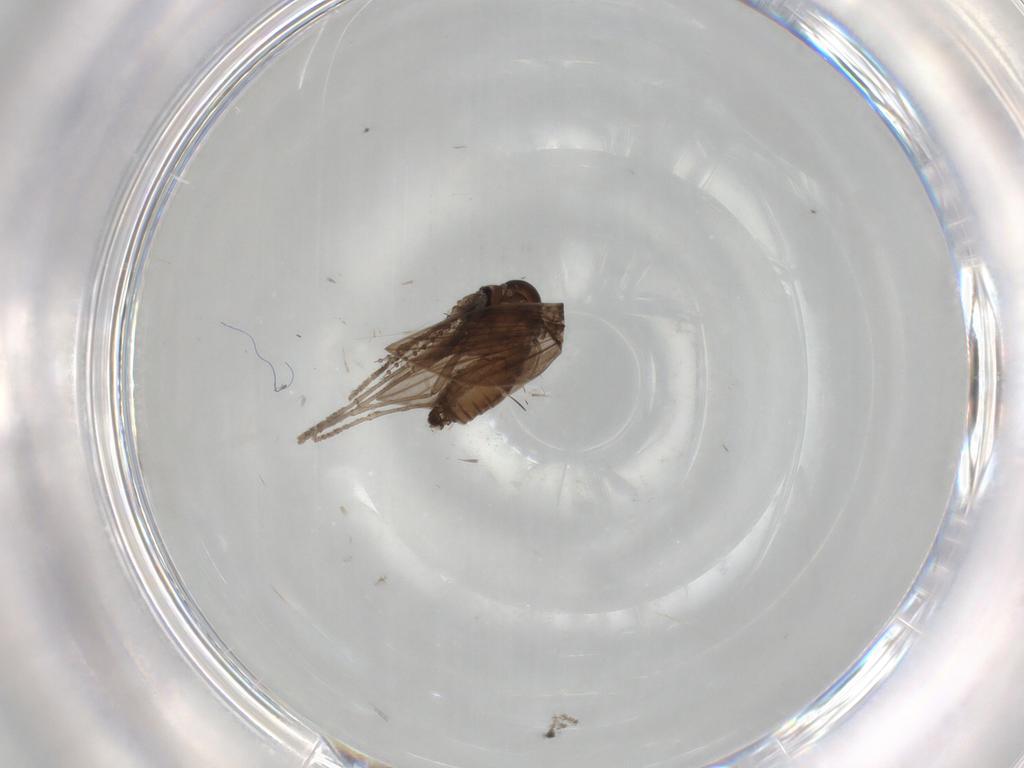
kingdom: Animalia
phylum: Arthropoda
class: Insecta
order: Diptera
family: Psychodidae
